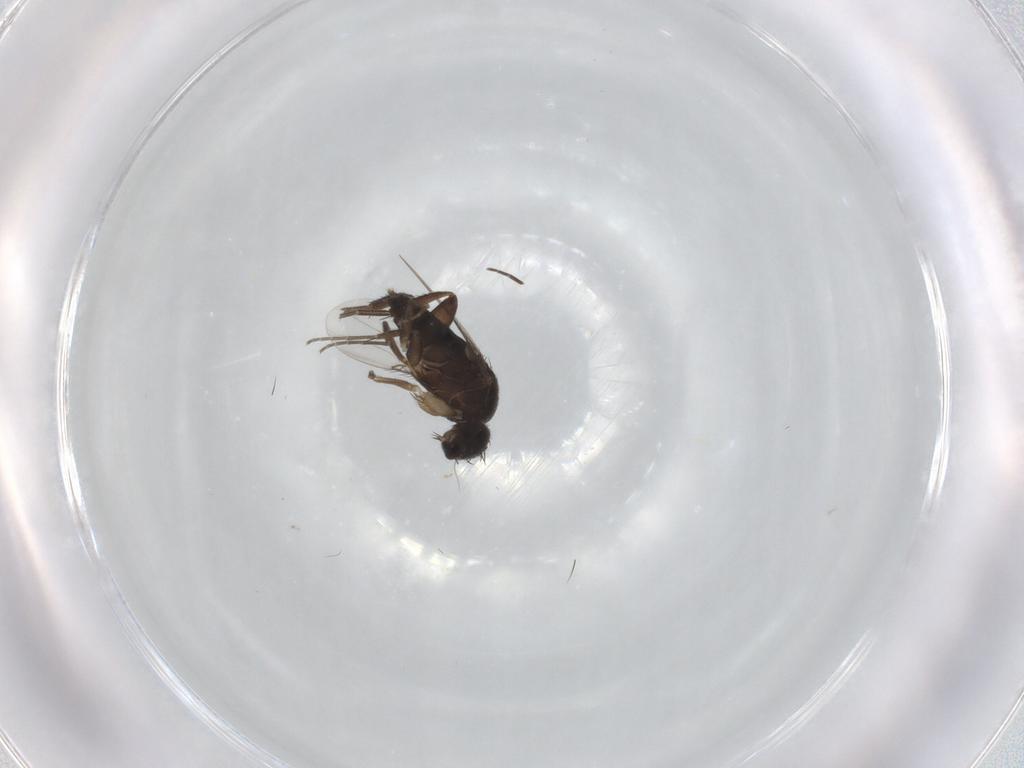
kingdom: Animalia
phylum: Arthropoda
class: Insecta
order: Diptera
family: Phoridae
